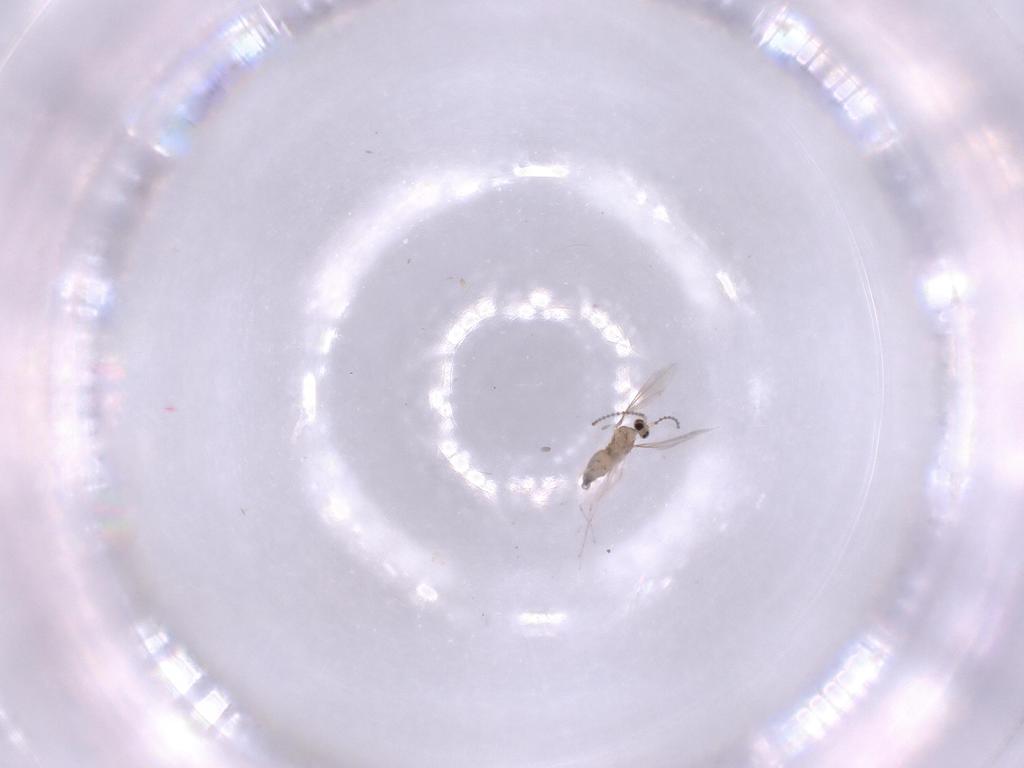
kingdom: Animalia
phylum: Arthropoda
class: Insecta
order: Diptera
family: Cecidomyiidae
